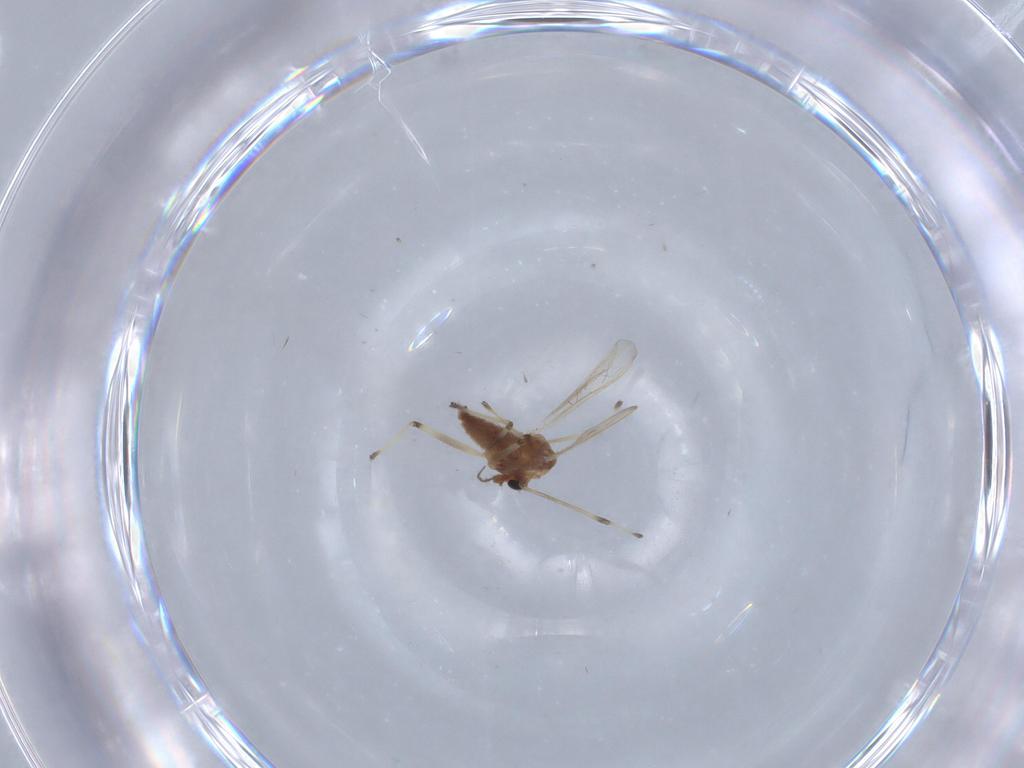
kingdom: Animalia
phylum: Arthropoda
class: Insecta
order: Diptera
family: Chironomidae
